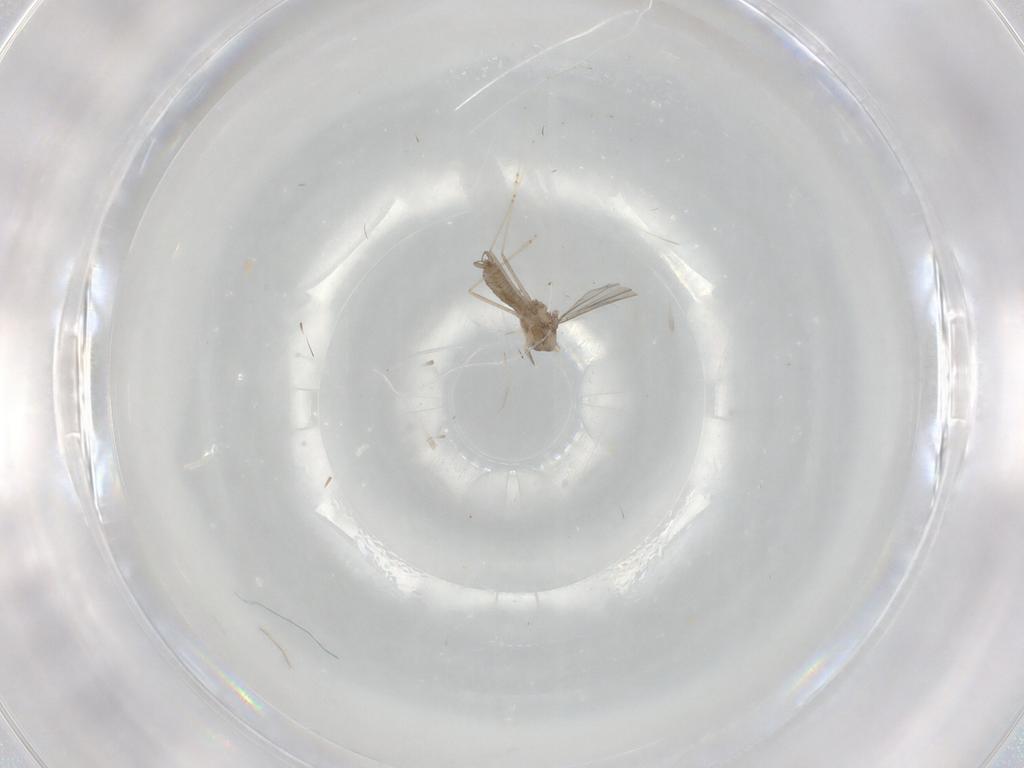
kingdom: Animalia
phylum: Arthropoda
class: Insecta
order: Diptera
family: Cecidomyiidae
